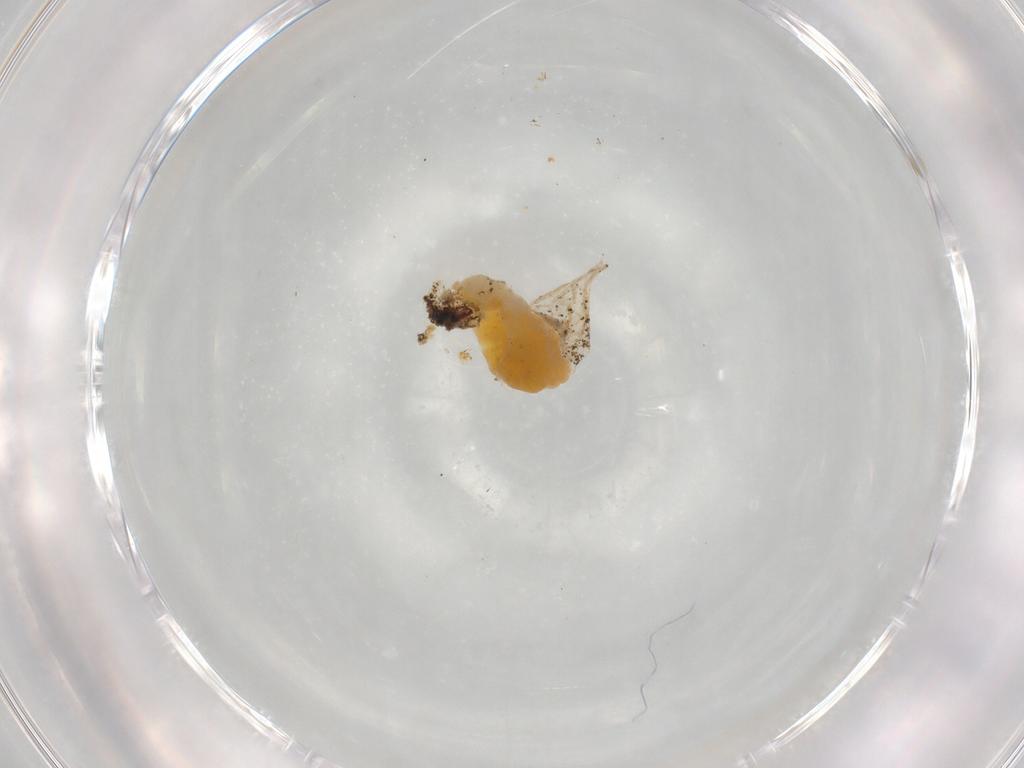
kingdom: Animalia
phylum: Arthropoda
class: Insecta
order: Hymenoptera
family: Eulophidae
